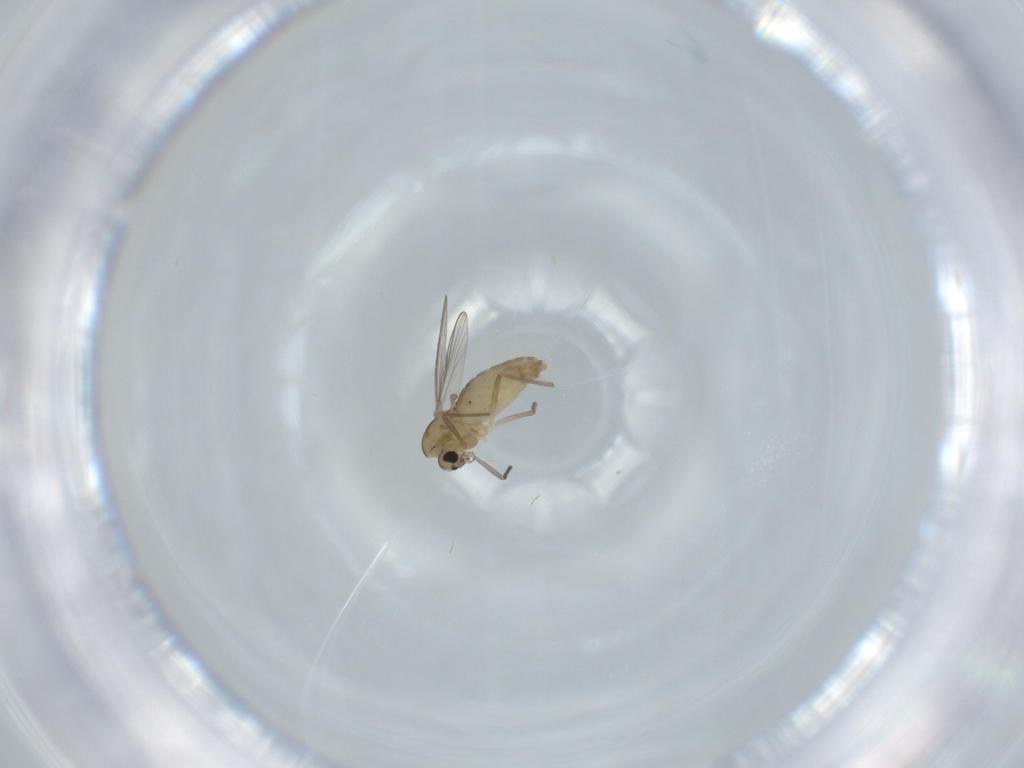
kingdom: Animalia
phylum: Arthropoda
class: Insecta
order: Diptera
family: Chironomidae
